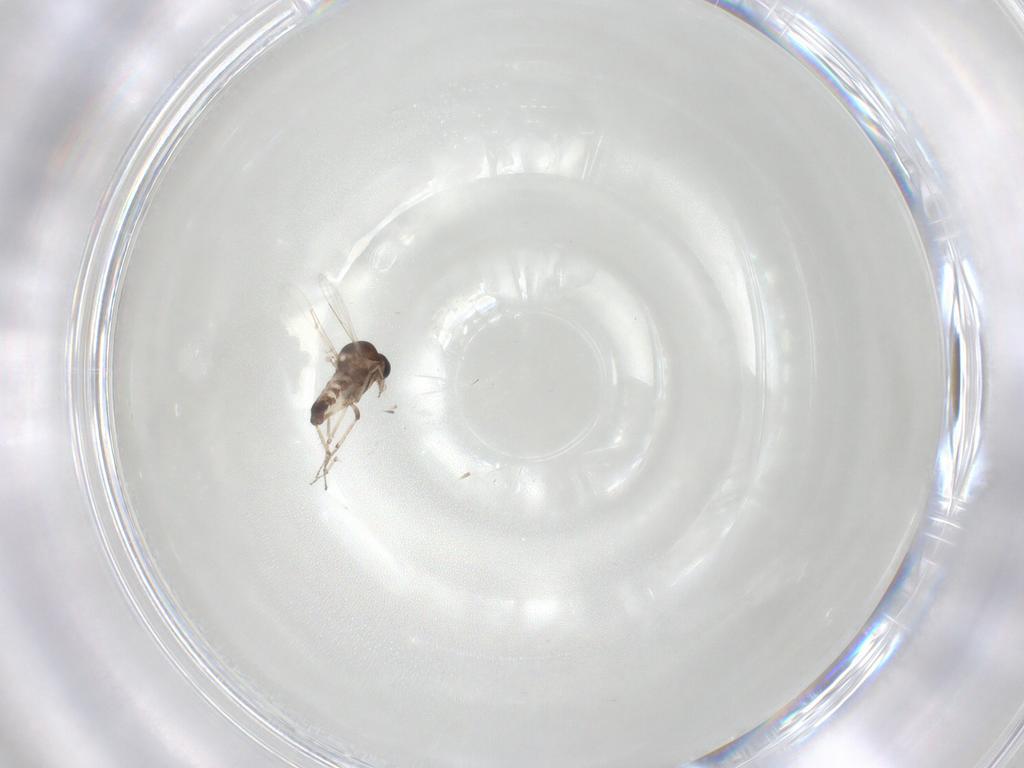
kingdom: Animalia
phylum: Arthropoda
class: Insecta
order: Diptera
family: Ceratopogonidae
